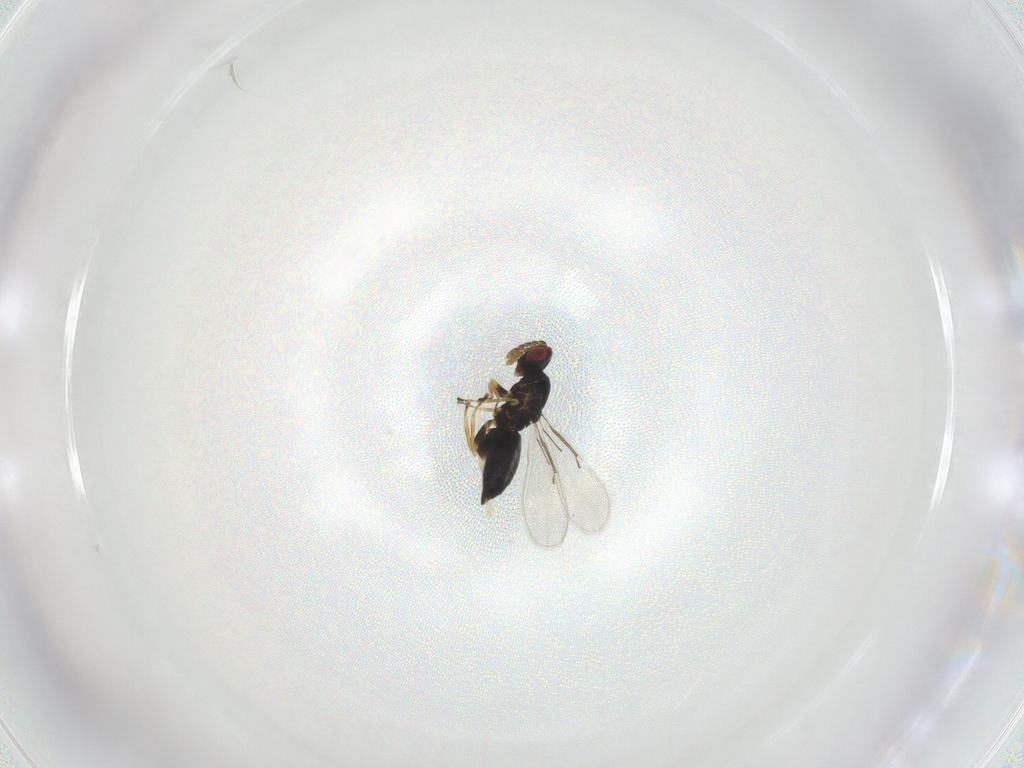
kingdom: Animalia
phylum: Arthropoda
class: Insecta
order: Hymenoptera
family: Eulophidae
